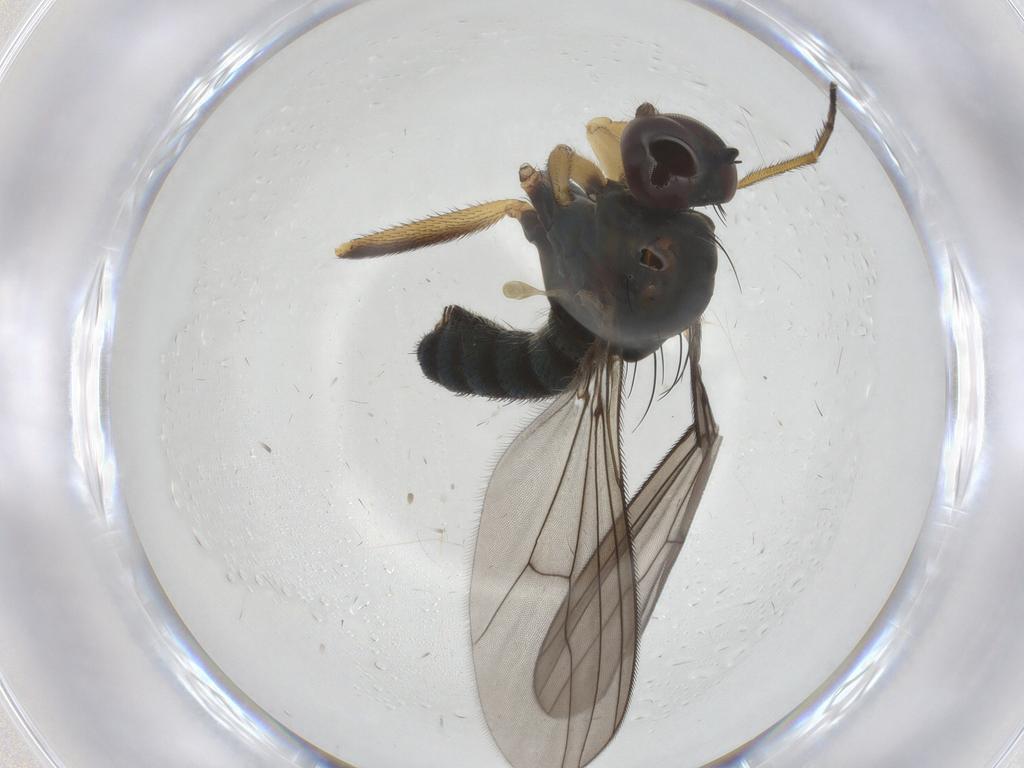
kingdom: Animalia
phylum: Arthropoda
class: Insecta
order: Diptera
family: Dolichopodidae
